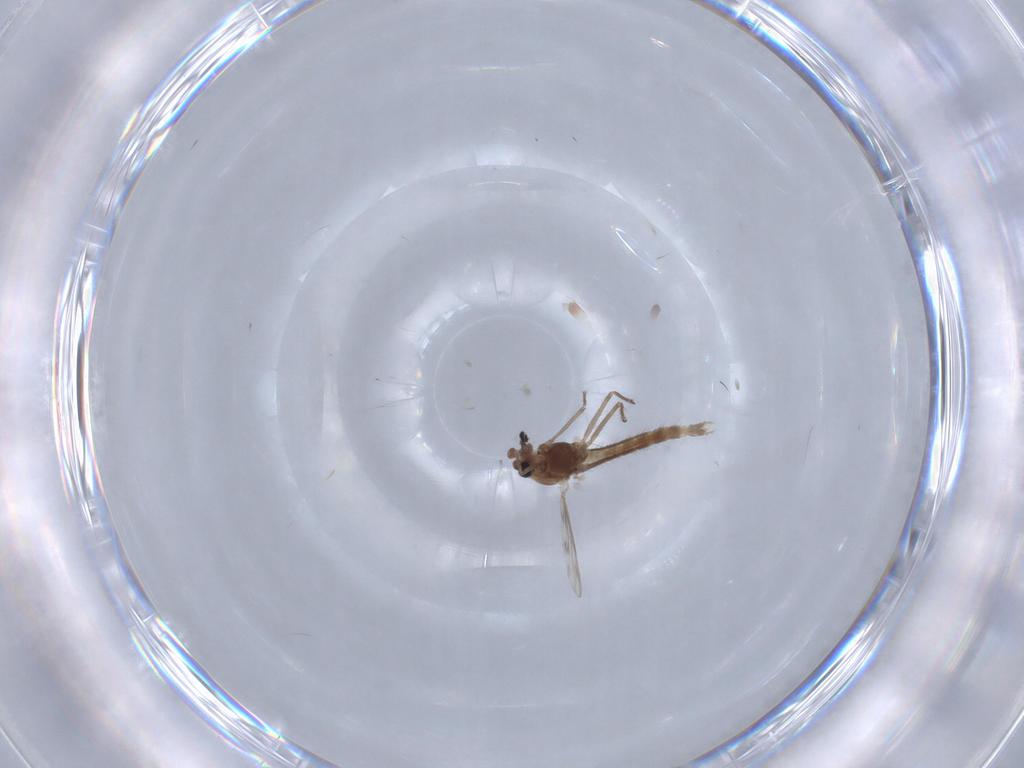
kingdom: Animalia
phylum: Arthropoda
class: Insecta
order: Diptera
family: Chironomidae
